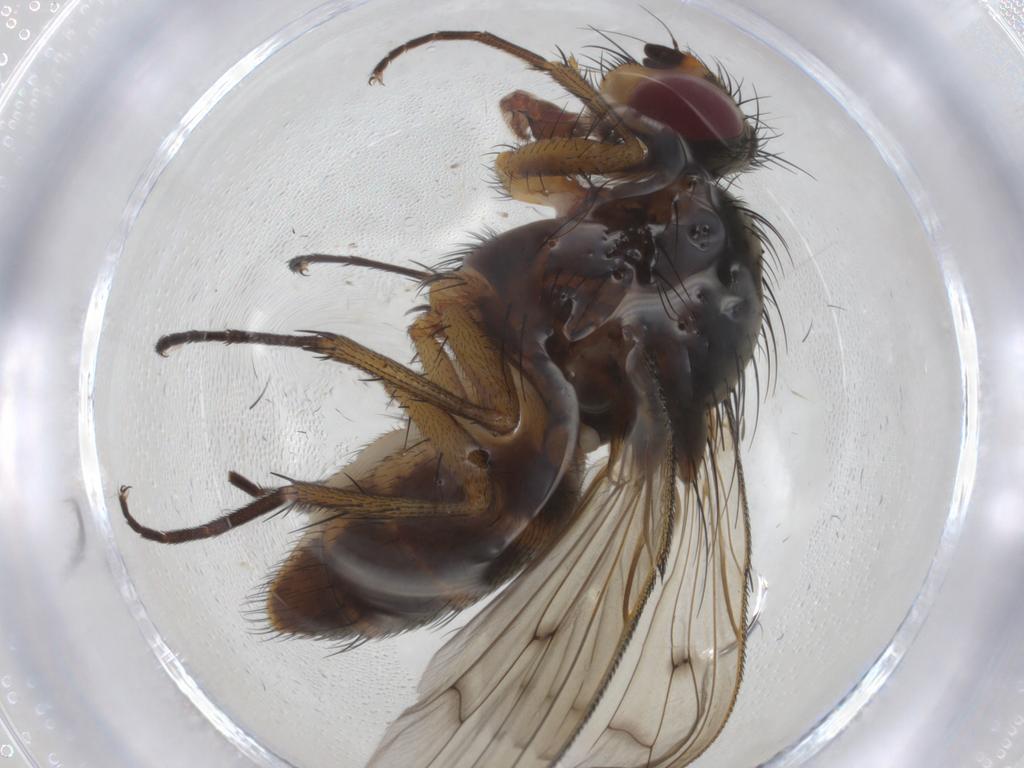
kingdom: Animalia
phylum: Arthropoda
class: Insecta
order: Diptera
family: Anthomyiidae
